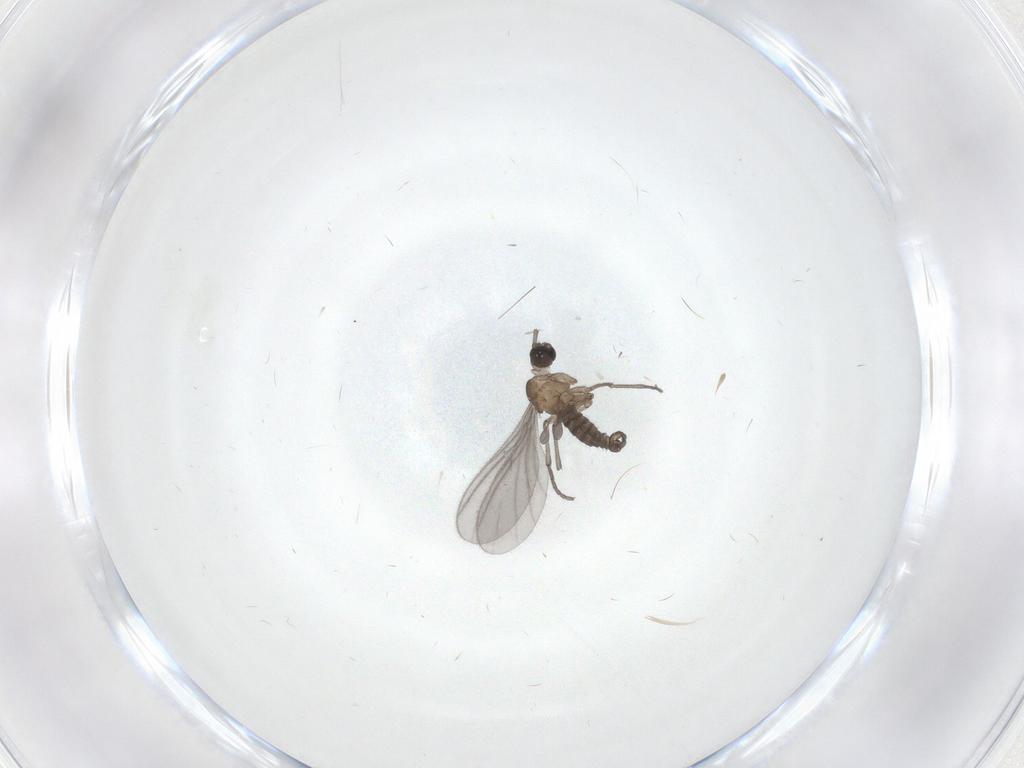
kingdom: Animalia
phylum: Arthropoda
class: Insecta
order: Diptera
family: Sciaridae
